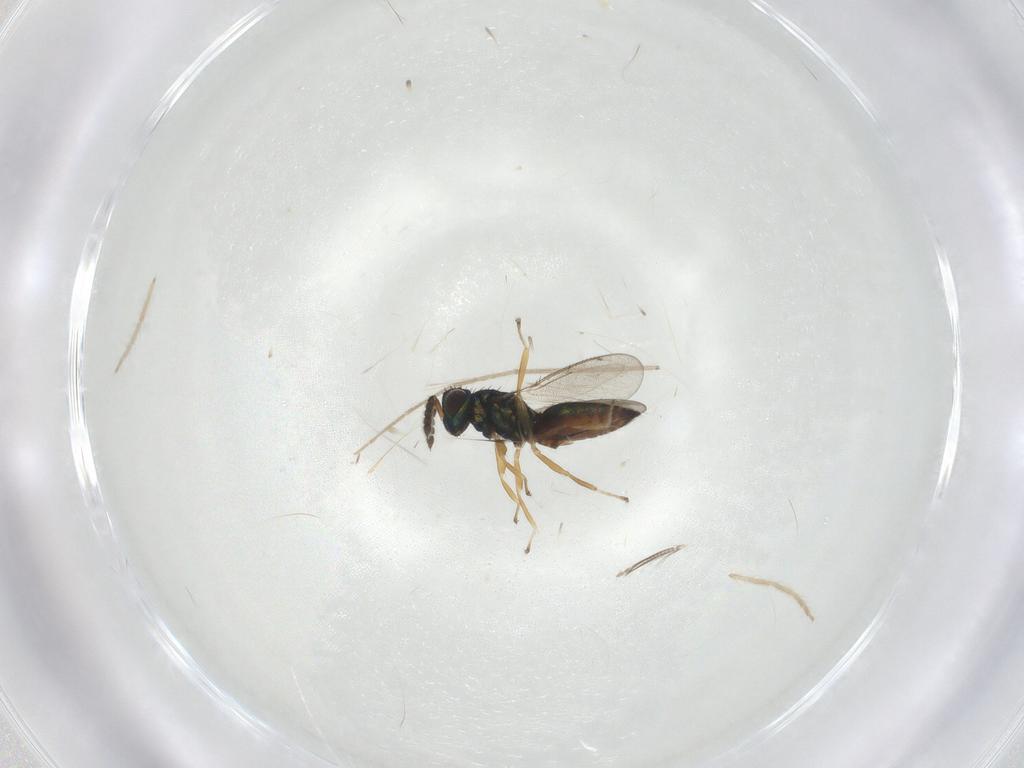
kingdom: Animalia
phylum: Arthropoda
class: Insecta
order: Hymenoptera
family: Eulophidae
